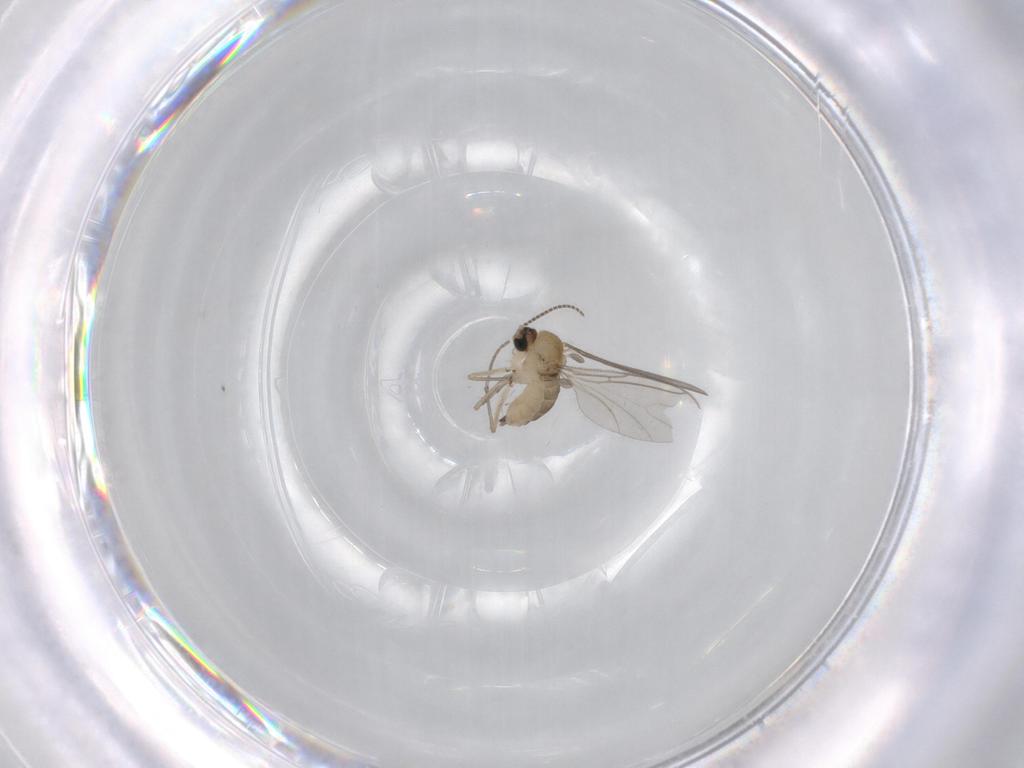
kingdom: Animalia
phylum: Arthropoda
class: Insecta
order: Diptera
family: Sciaridae
